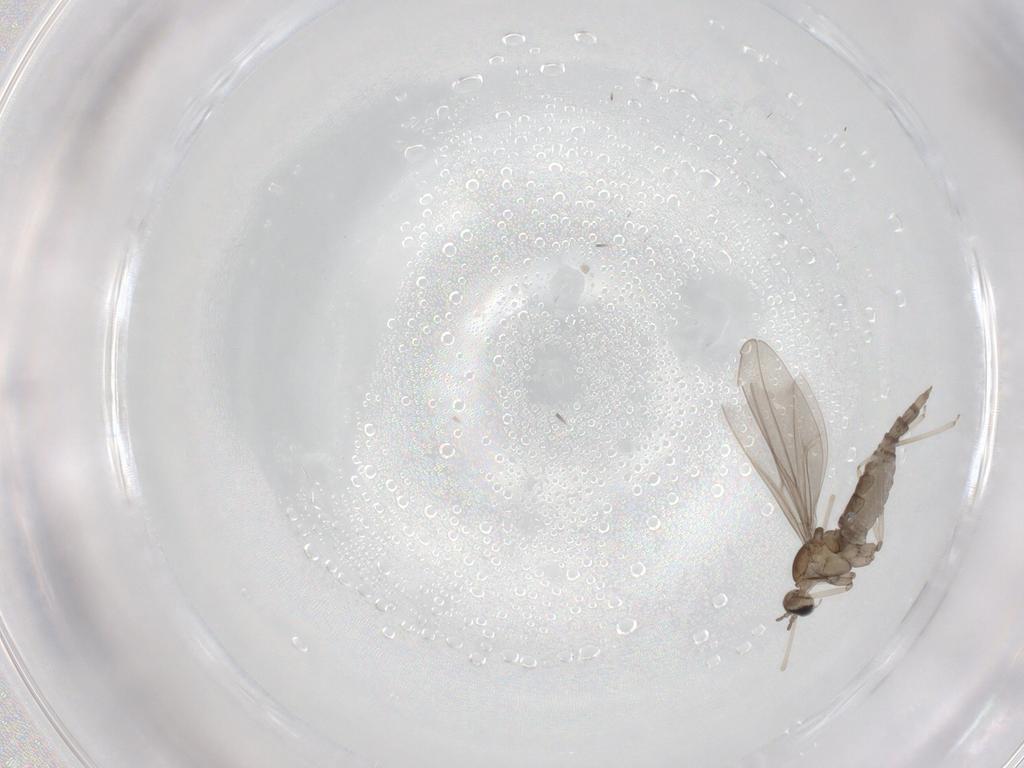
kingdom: Animalia
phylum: Arthropoda
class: Insecta
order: Diptera
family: Cecidomyiidae
